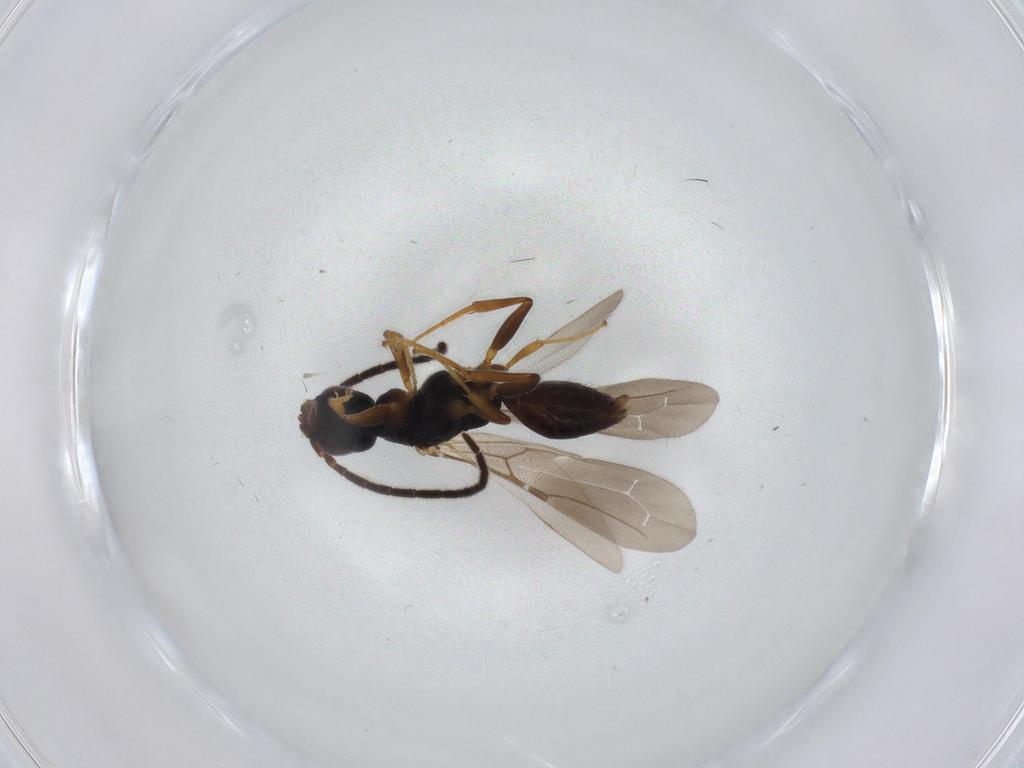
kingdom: Animalia
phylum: Arthropoda
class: Insecta
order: Hymenoptera
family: Bethylidae
